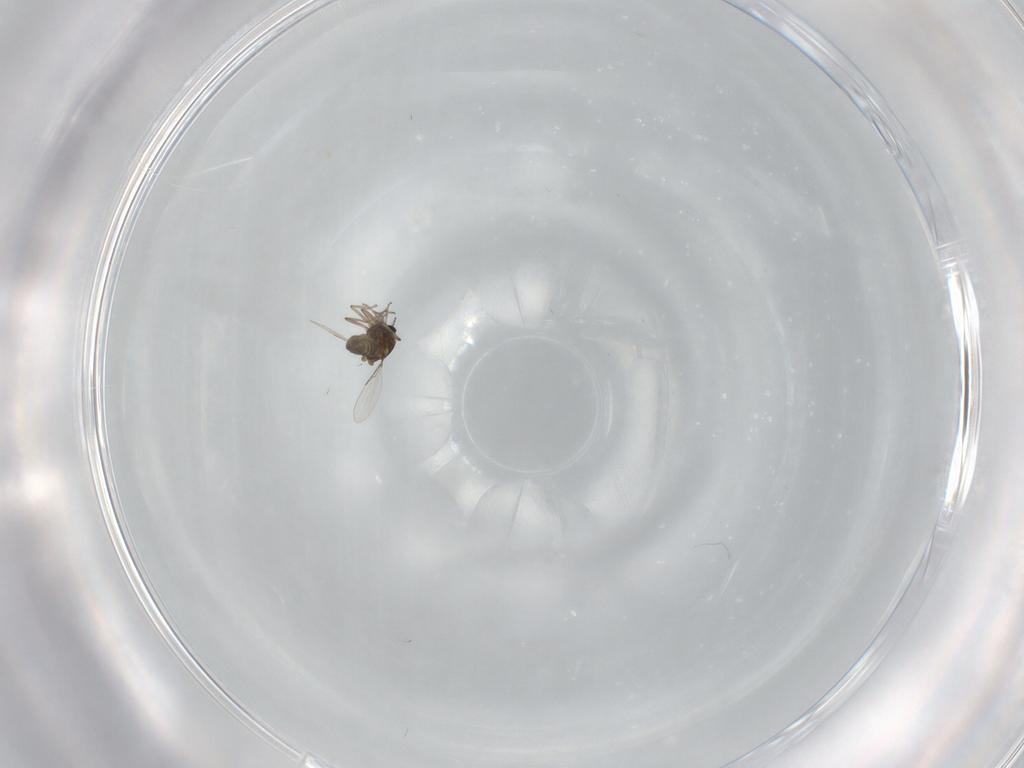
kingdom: Animalia
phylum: Arthropoda
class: Insecta
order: Diptera
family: Ceratopogonidae
